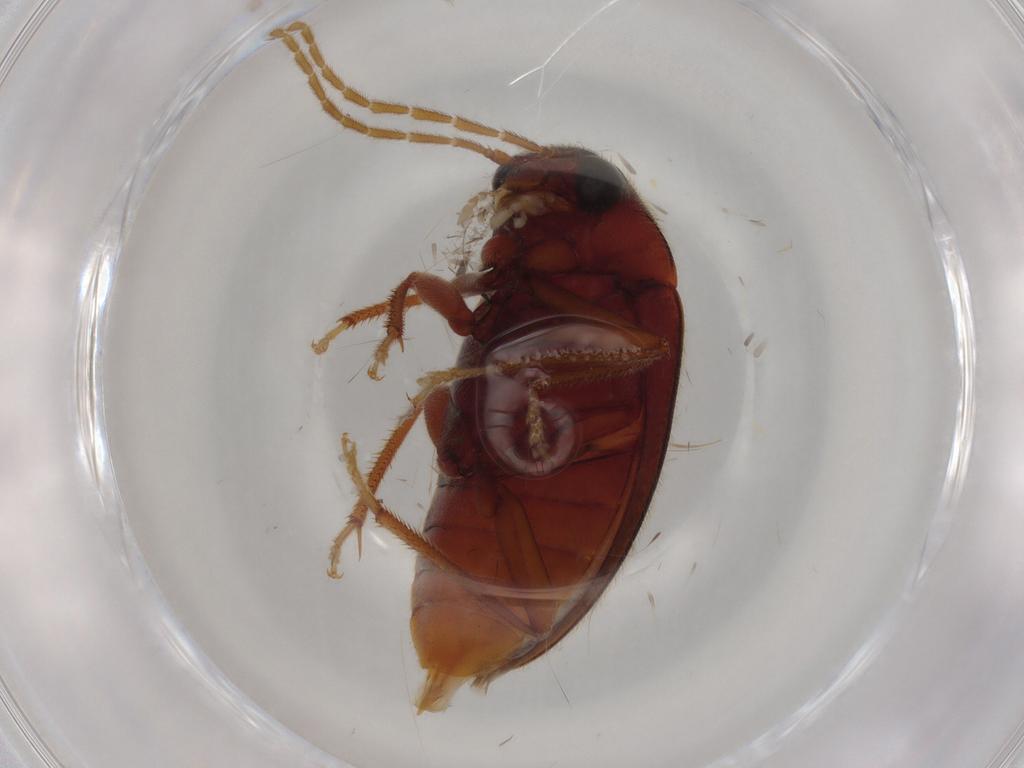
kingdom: Animalia
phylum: Arthropoda
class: Insecta
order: Coleoptera
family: Ptilodactylidae
